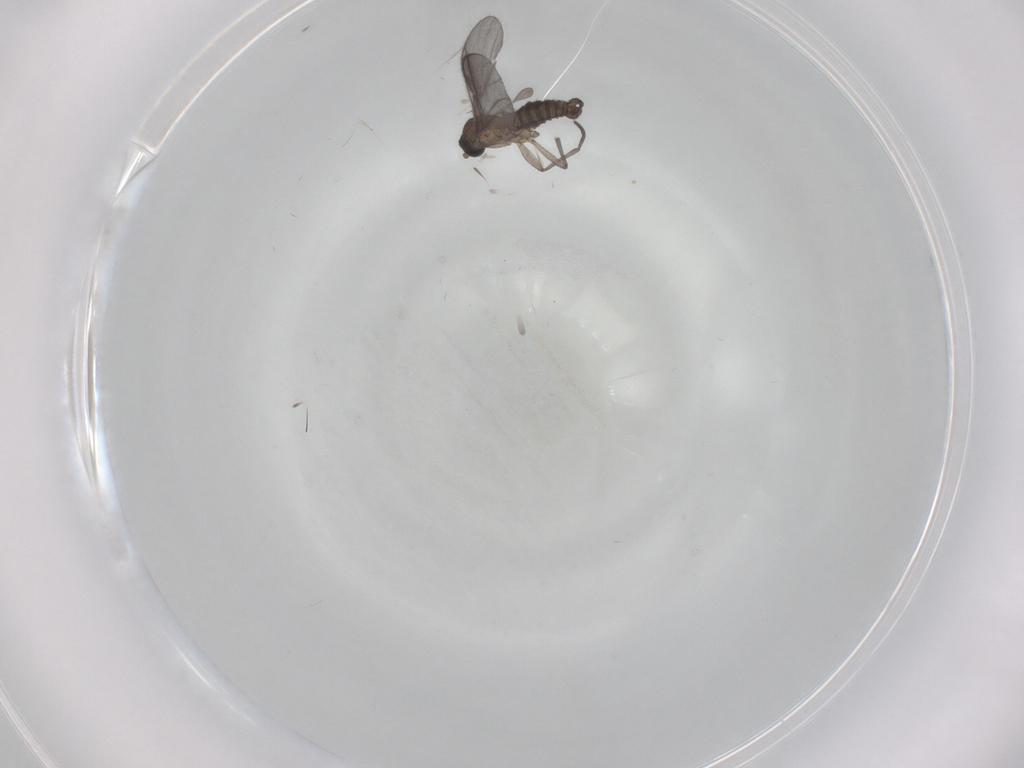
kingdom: Animalia
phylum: Arthropoda
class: Insecta
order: Diptera
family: Sciaridae
